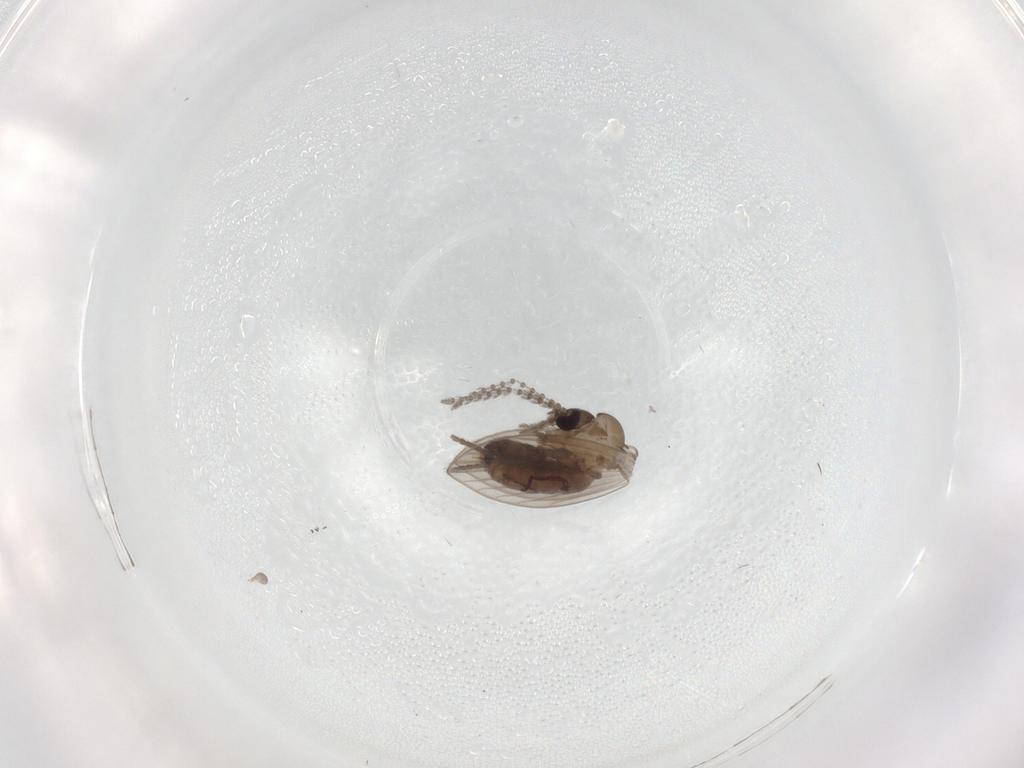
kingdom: Animalia
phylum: Arthropoda
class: Insecta
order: Diptera
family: Psychodidae
